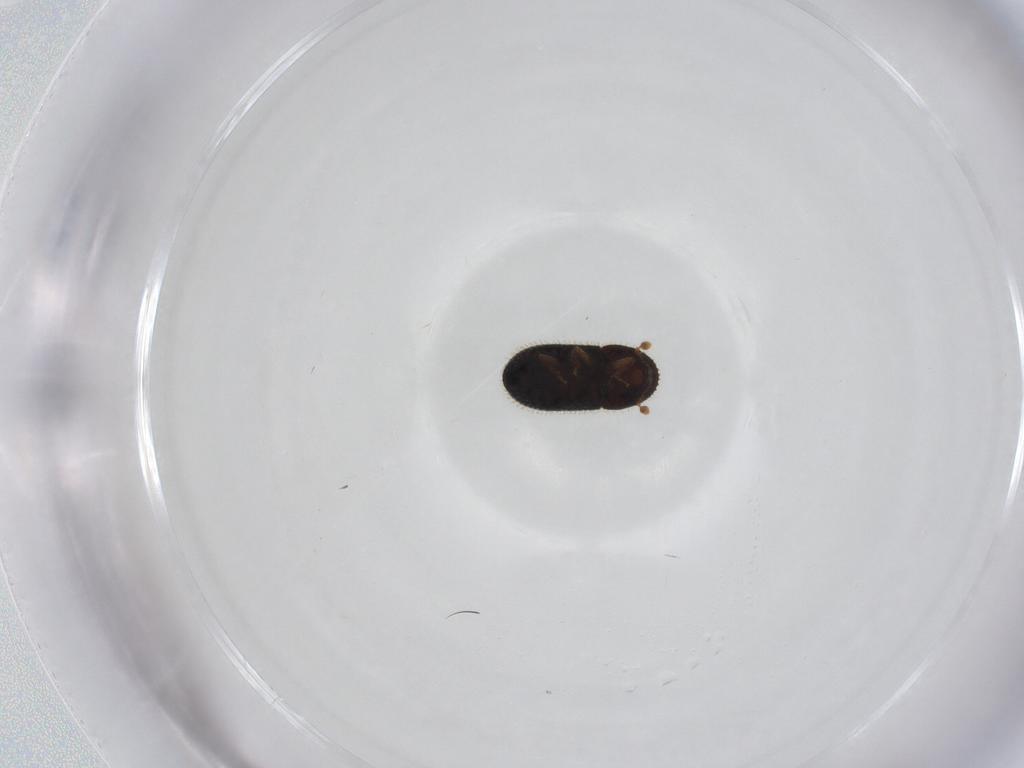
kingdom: Animalia
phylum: Arthropoda
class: Insecta
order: Coleoptera
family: Curculionidae
